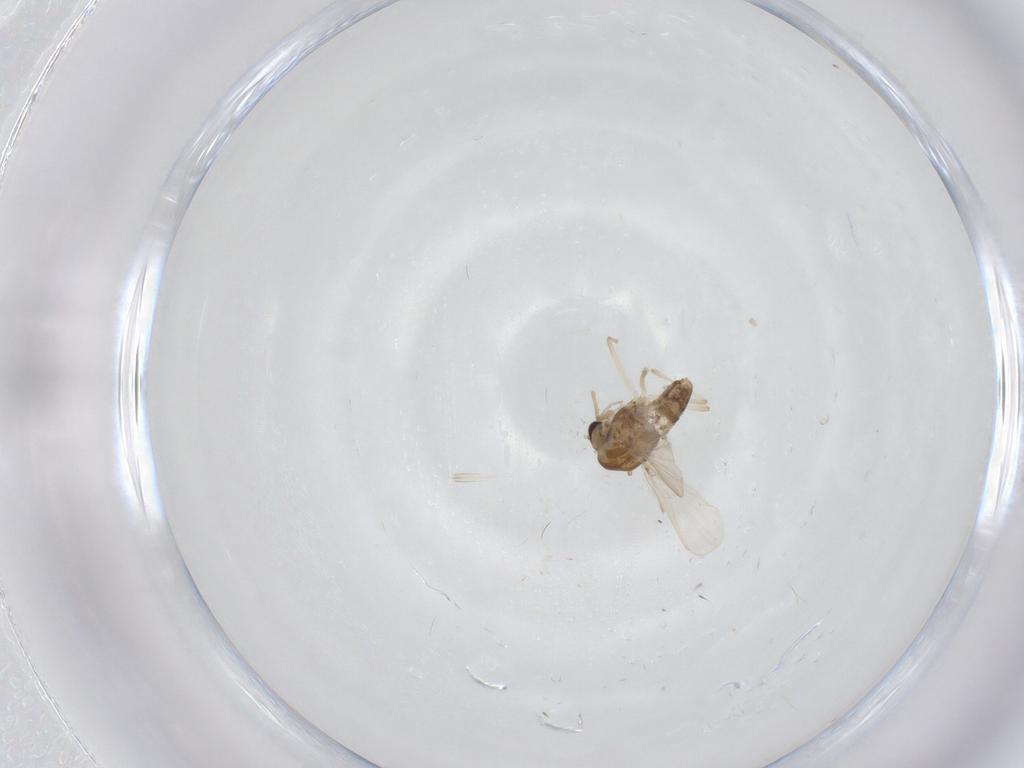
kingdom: Animalia
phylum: Arthropoda
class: Insecta
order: Diptera
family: Chironomidae
